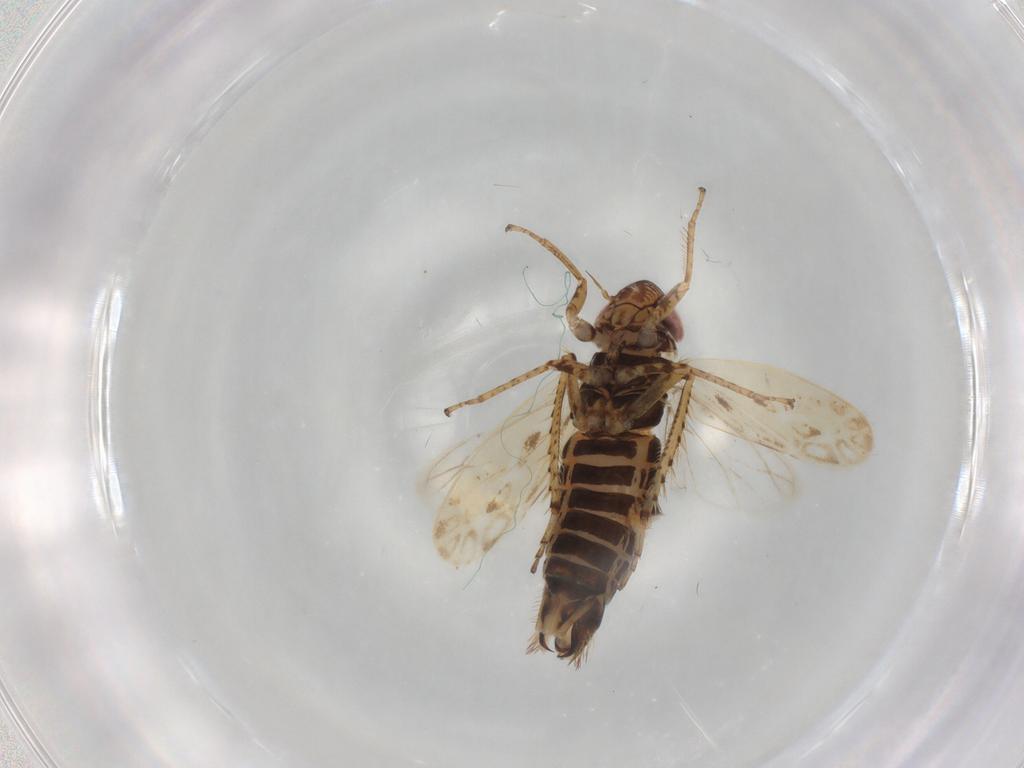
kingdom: Animalia
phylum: Arthropoda
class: Insecta
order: Hemiptera
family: Cicadellidae
